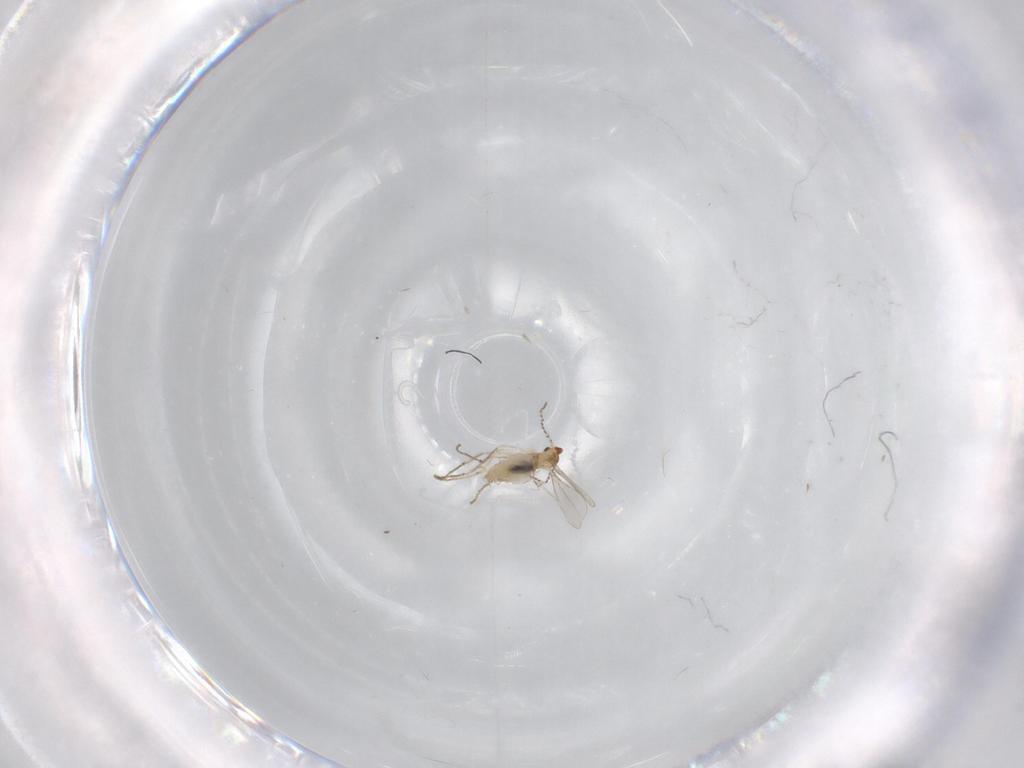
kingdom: Animalia
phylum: Arthropoda
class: Insecta
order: Diptera
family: Cecidomyiidae
